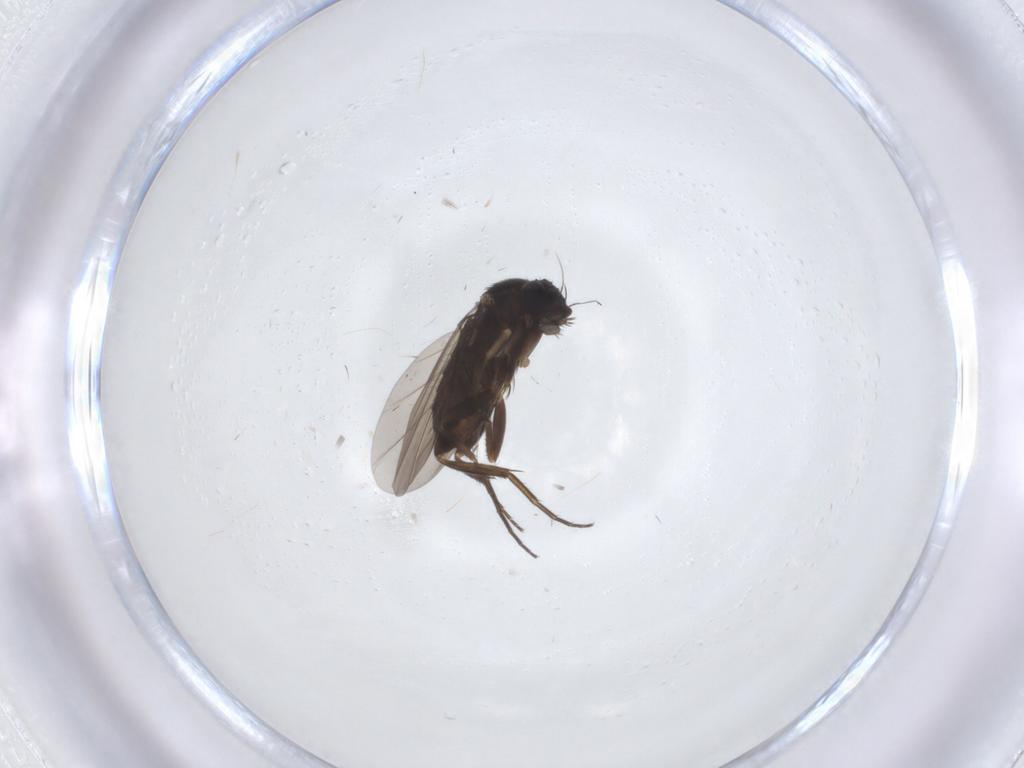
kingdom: Animalia
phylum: Arthropoda
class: Insecta
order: Diptera
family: Phoridae
